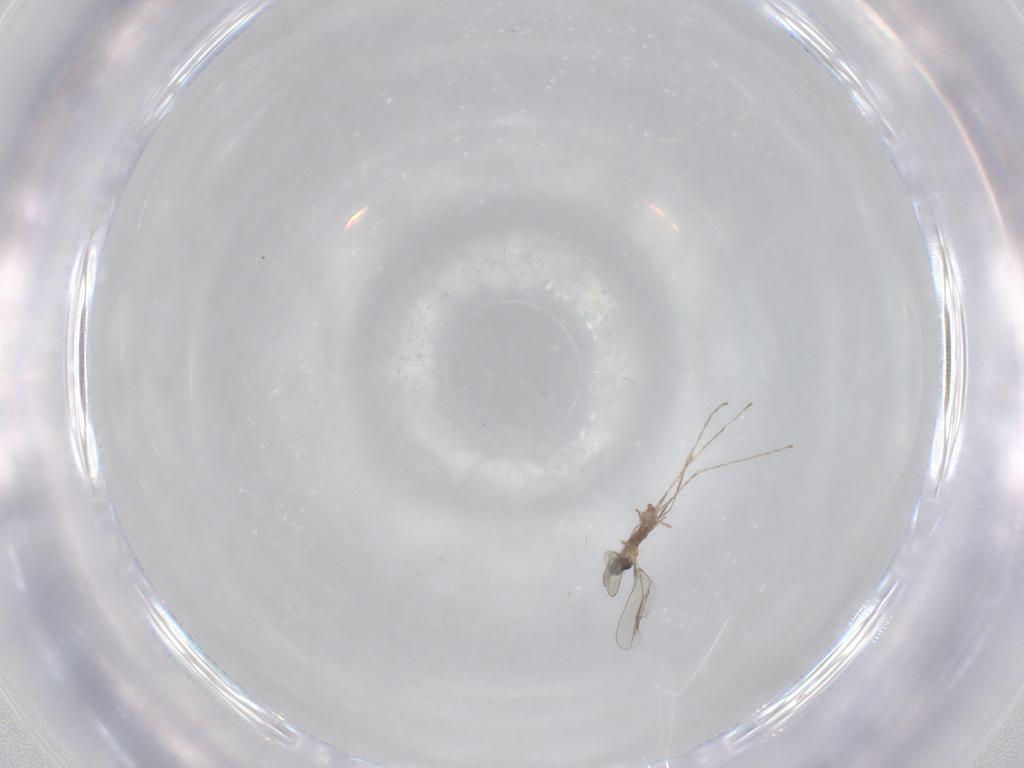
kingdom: Animalia
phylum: Arthropoda
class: Insecta
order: Diptera
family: Cecidomyiidae
